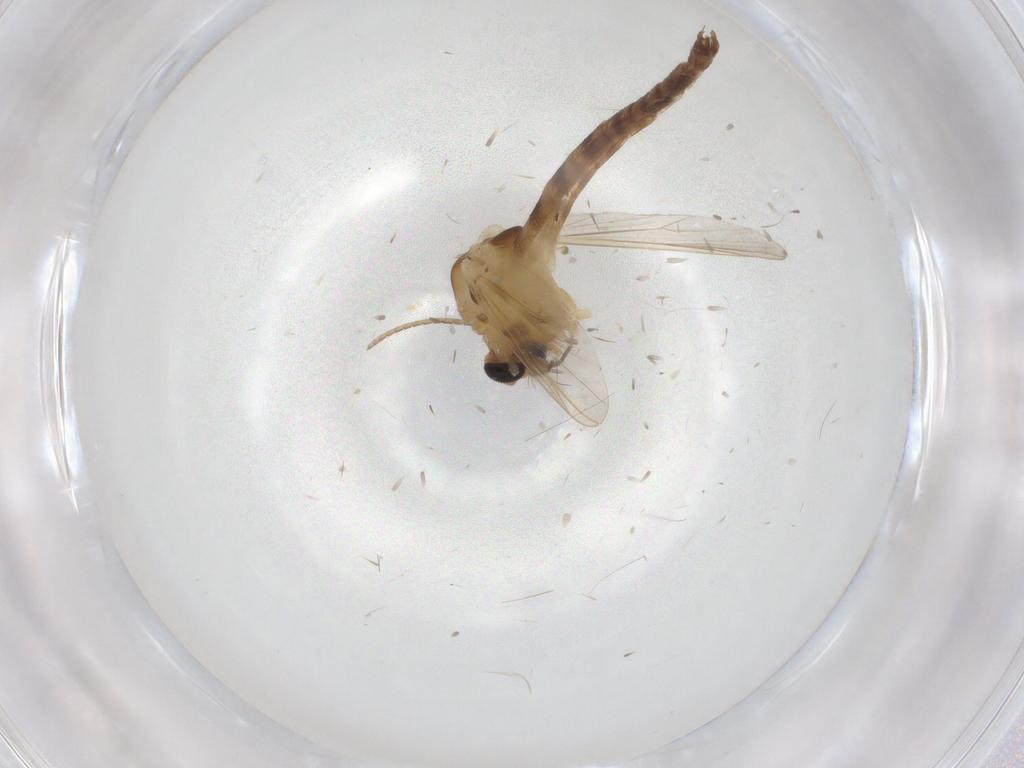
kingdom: Animalia
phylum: Arthropoda
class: Insecta
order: Diptera
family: Chironomidae
